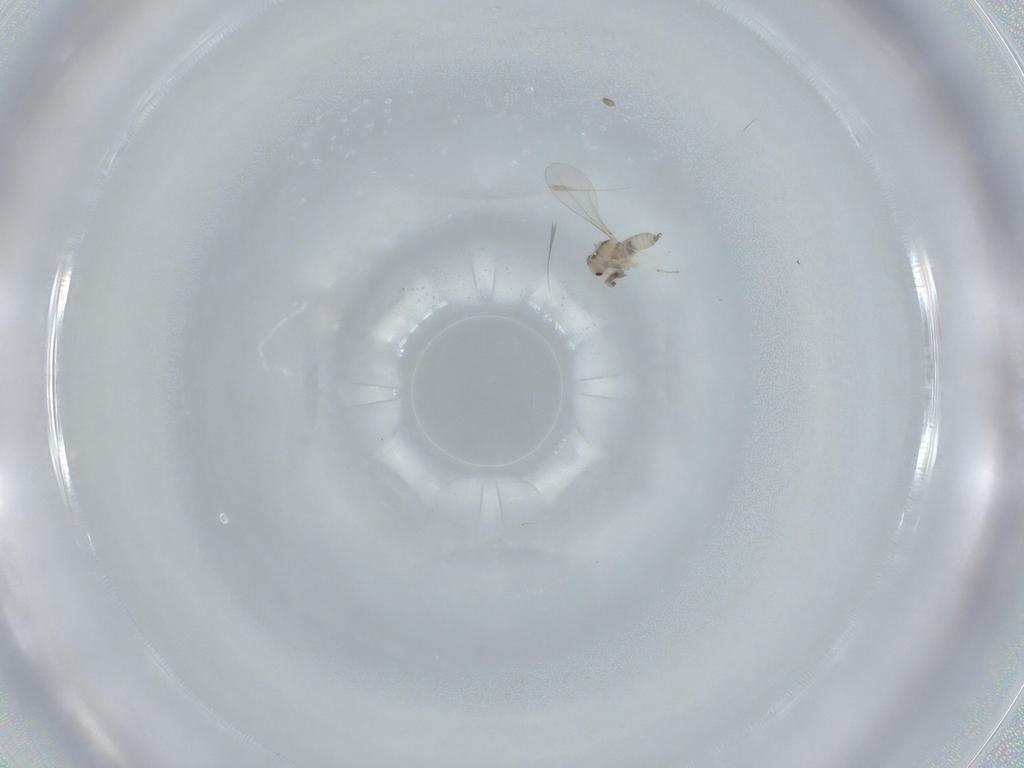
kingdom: Animalia
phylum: Arthropoda
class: Insecta
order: Diptera
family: Cecidomyiidae
